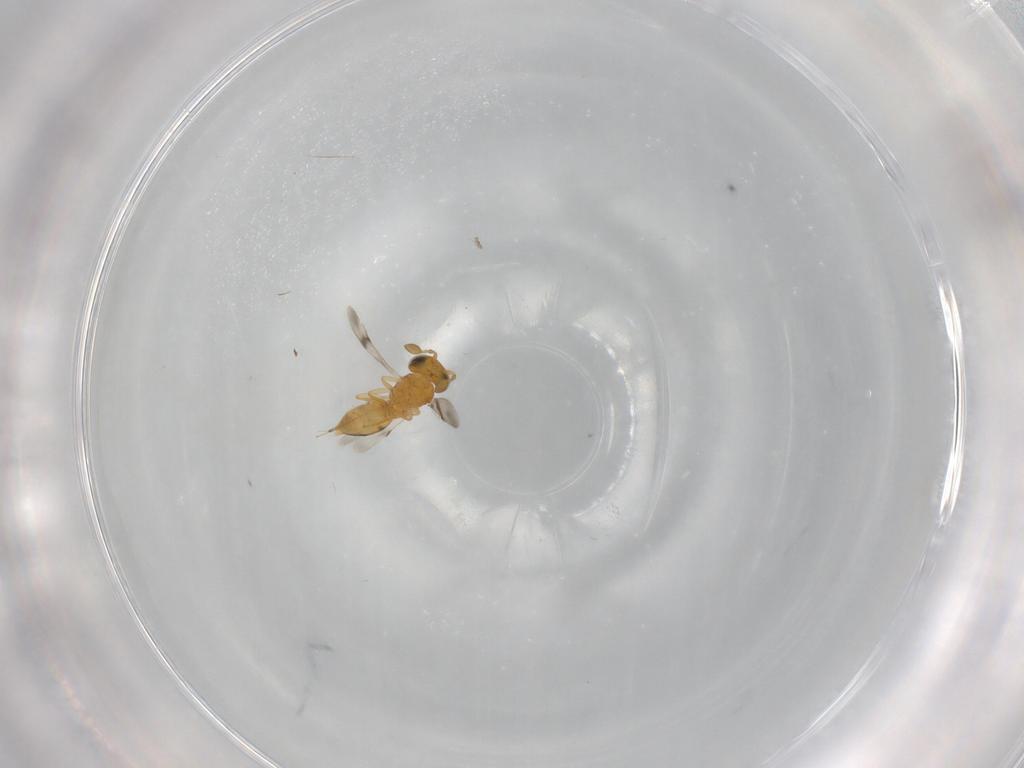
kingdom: Animalia
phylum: Arthropoda
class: Insecta
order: Hymenoptera
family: Scelionidae
